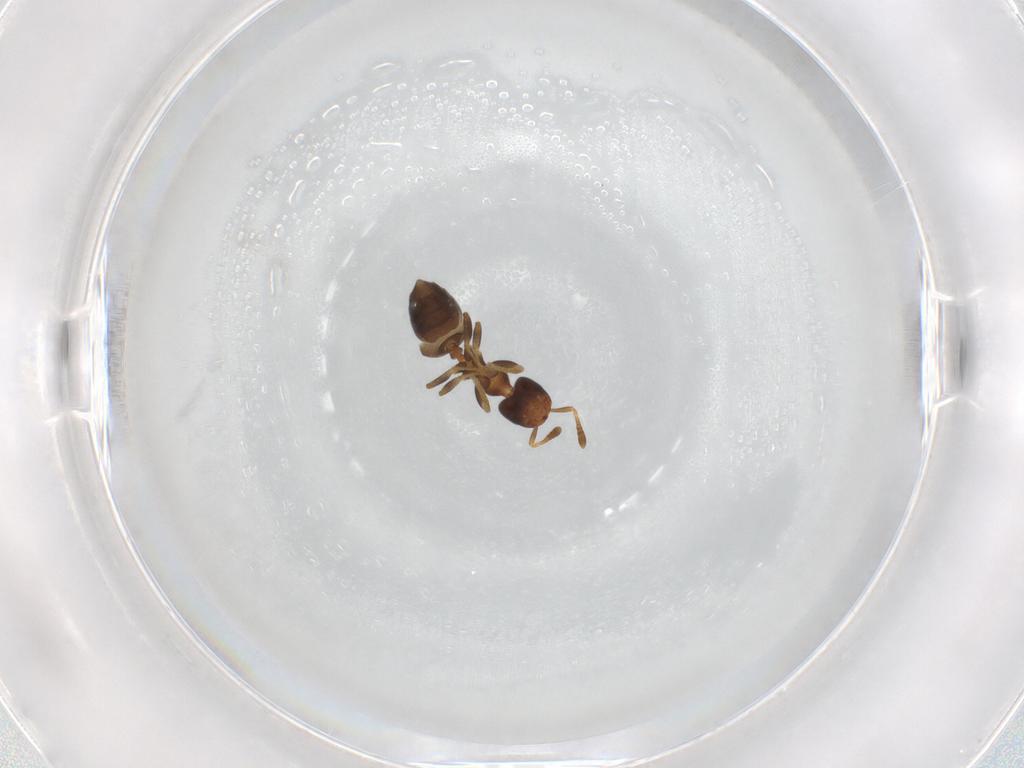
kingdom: Animalia
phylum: Arthropoda
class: Insecta
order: Hymenoptera
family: Formicidae
